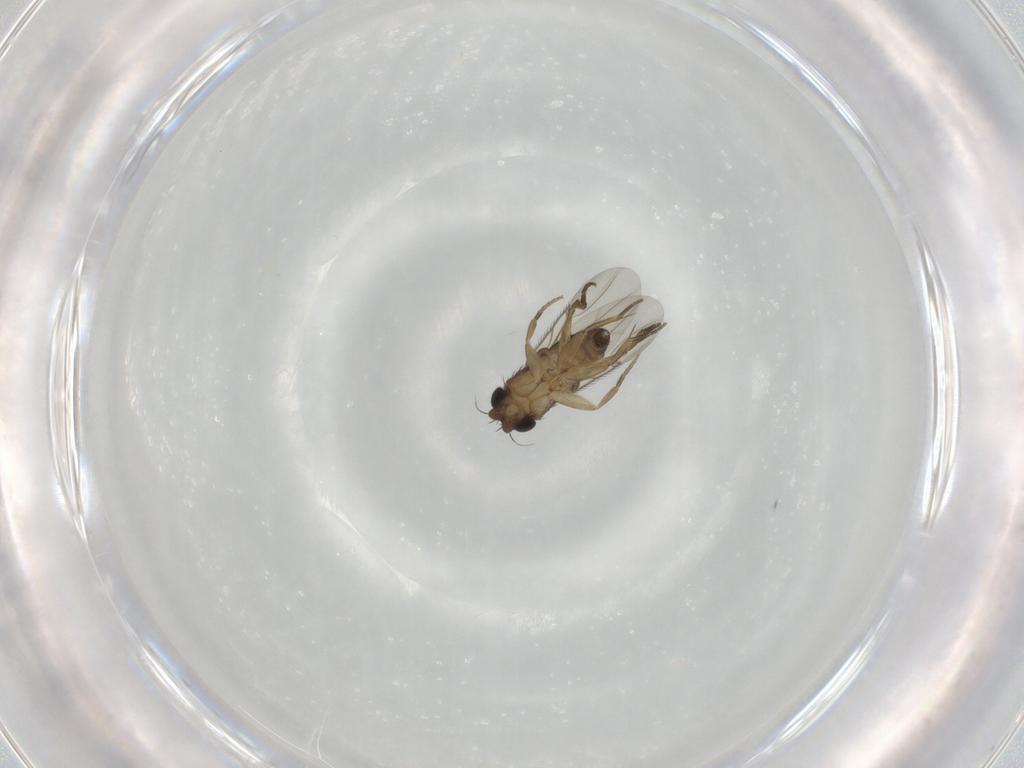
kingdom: Animalia
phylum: Arthropoda
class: Insecta
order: Diptera
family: Phoridae
